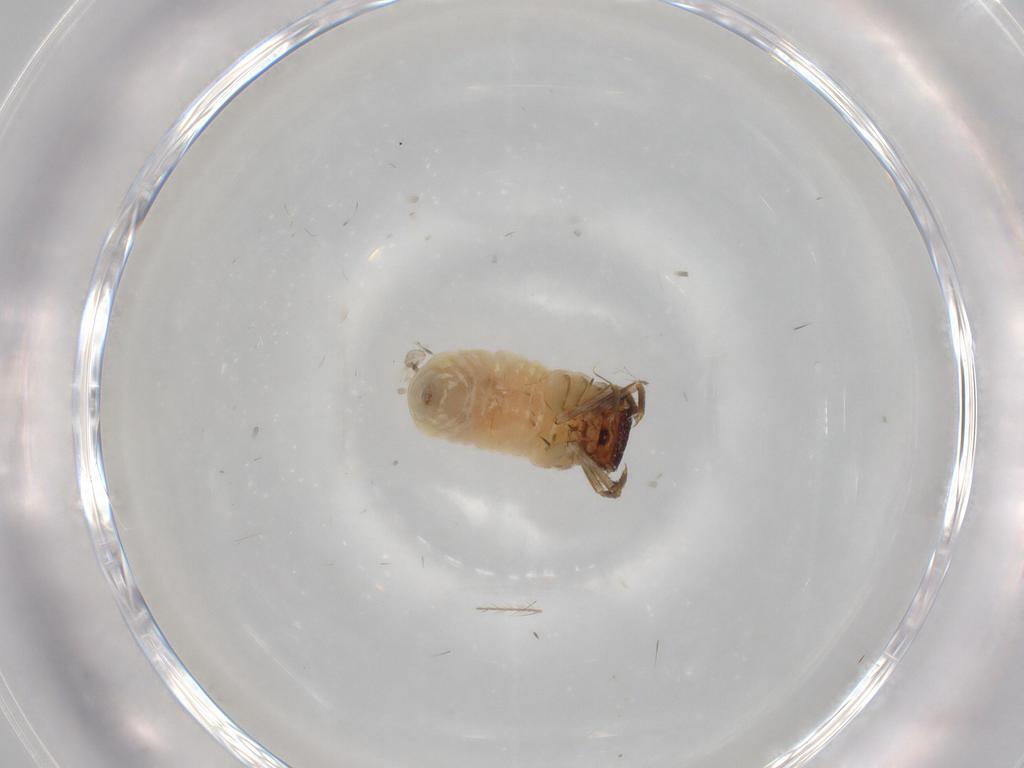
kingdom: Animalia
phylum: Arthropoda
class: Insecta
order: Coleoptera
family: Chrysomelidae
